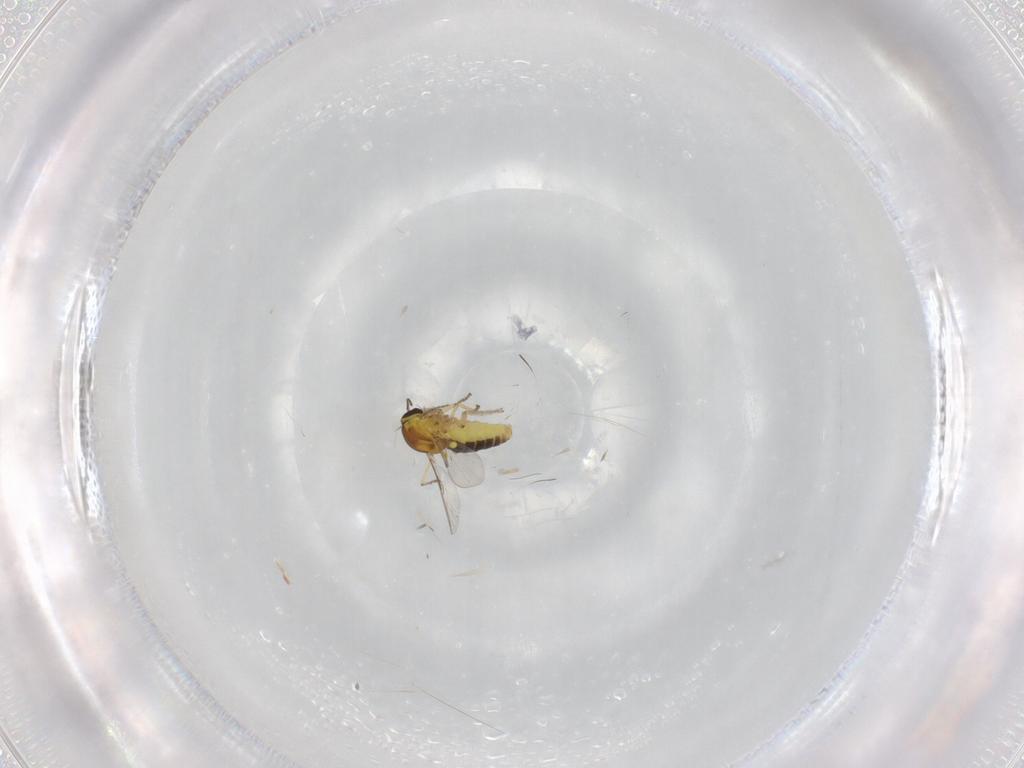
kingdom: Animalia
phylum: Arthropoda
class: Insecta
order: Diptera
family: Ceratopogonidae
